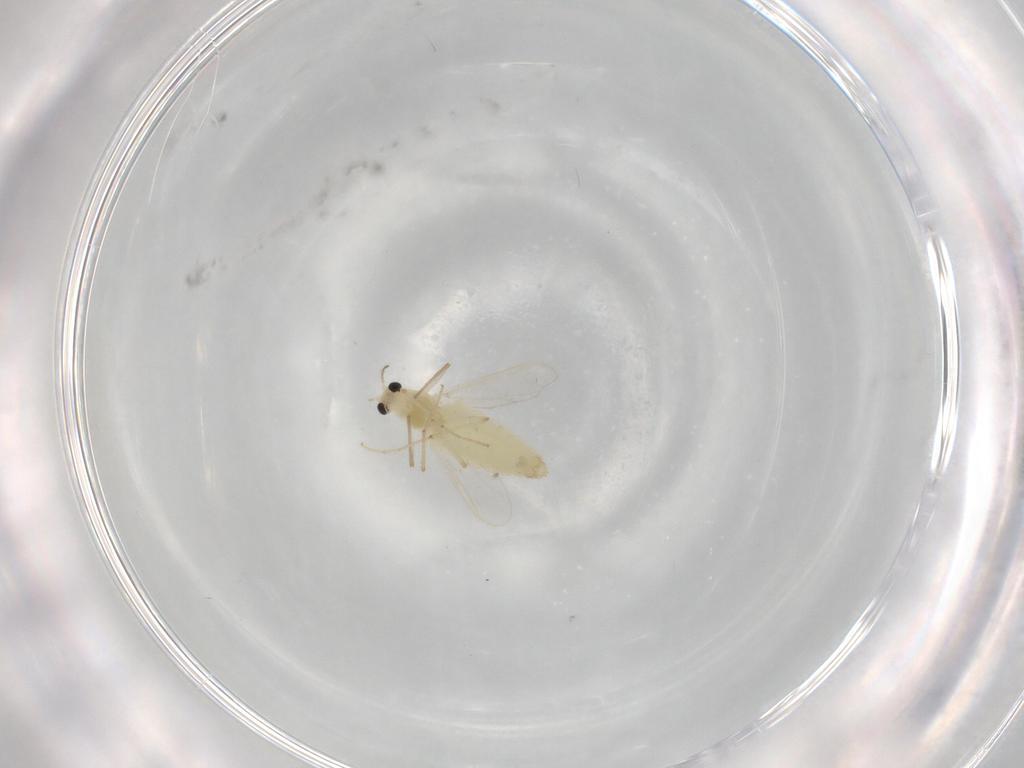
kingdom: Animalia
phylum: Arthropoda
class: Insecta
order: Diptera
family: Chironomidae
